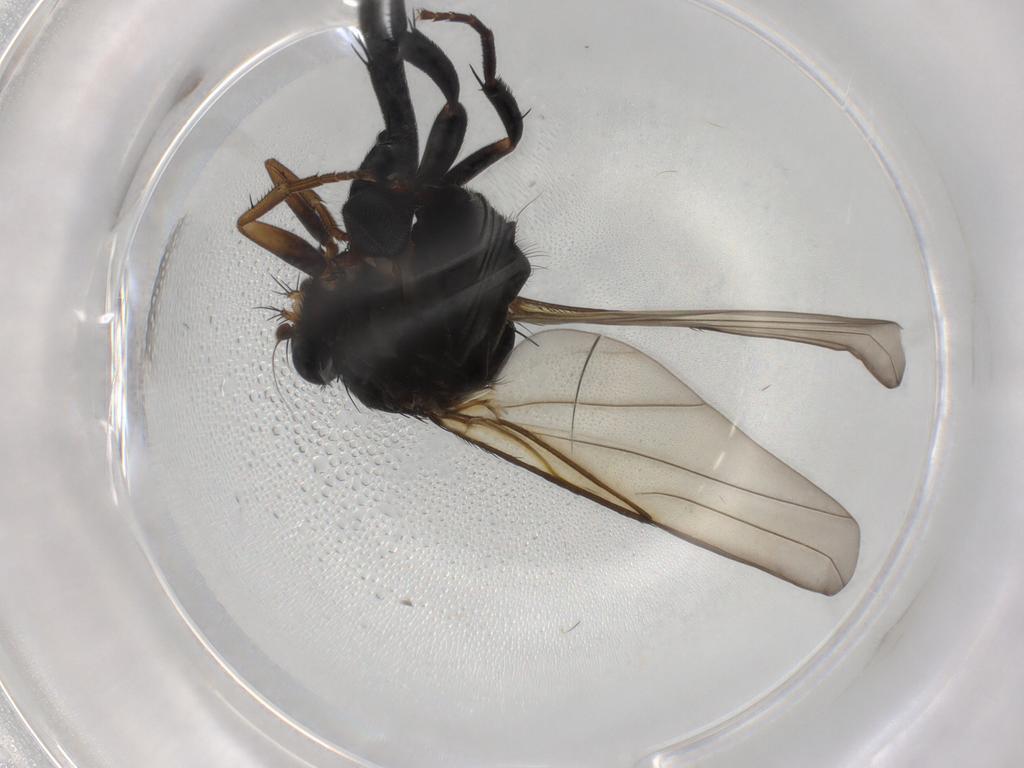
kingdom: Animalia
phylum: Arthropoda
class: Insecta
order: Diptera
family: Phoridae
